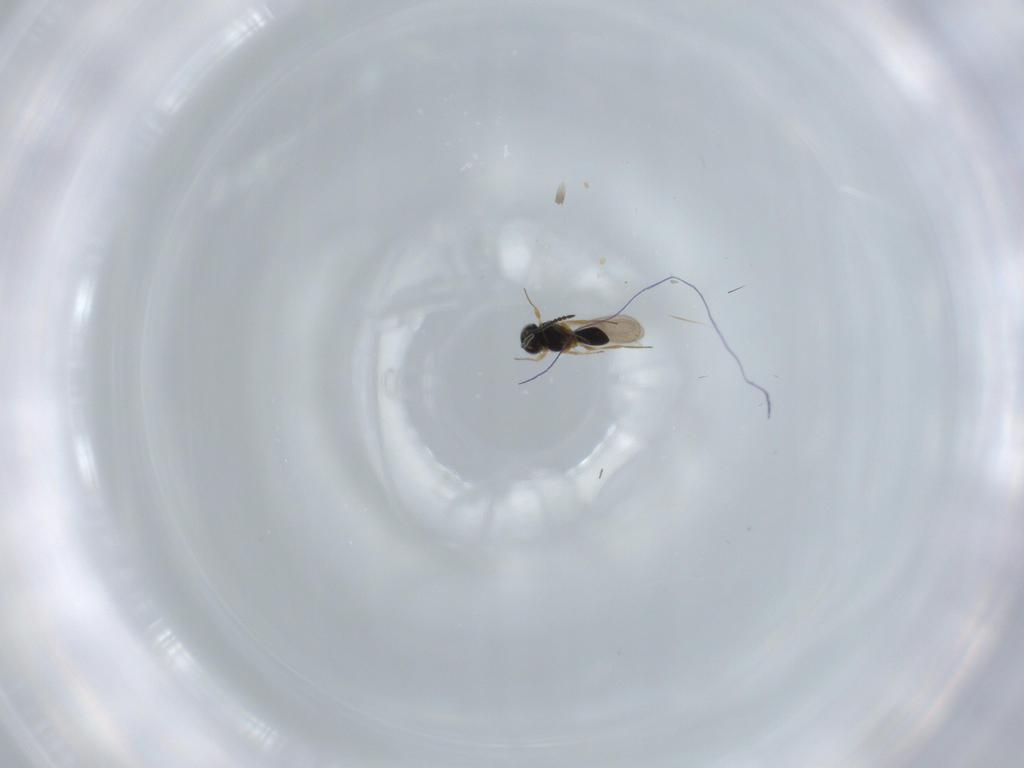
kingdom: Animalia
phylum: Arthropoda
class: Insecta
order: Hymenoptera
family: Scelionidae
